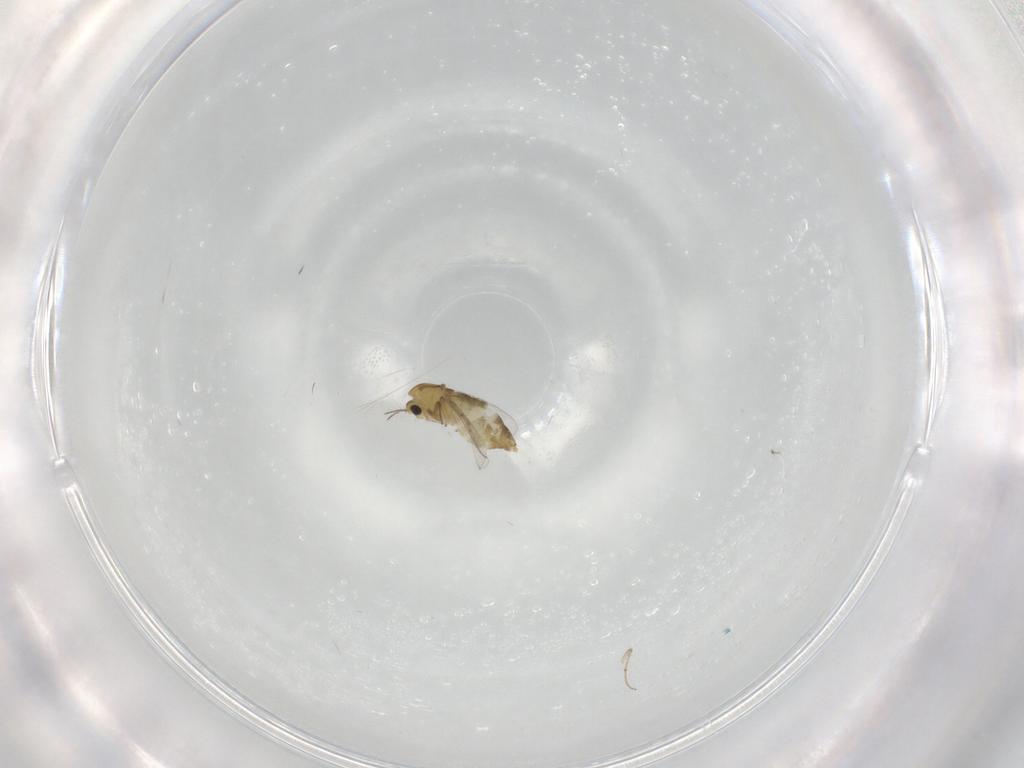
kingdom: Animalia
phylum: Arthropoda
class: Insecta
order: Diptera
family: Chironomidae
